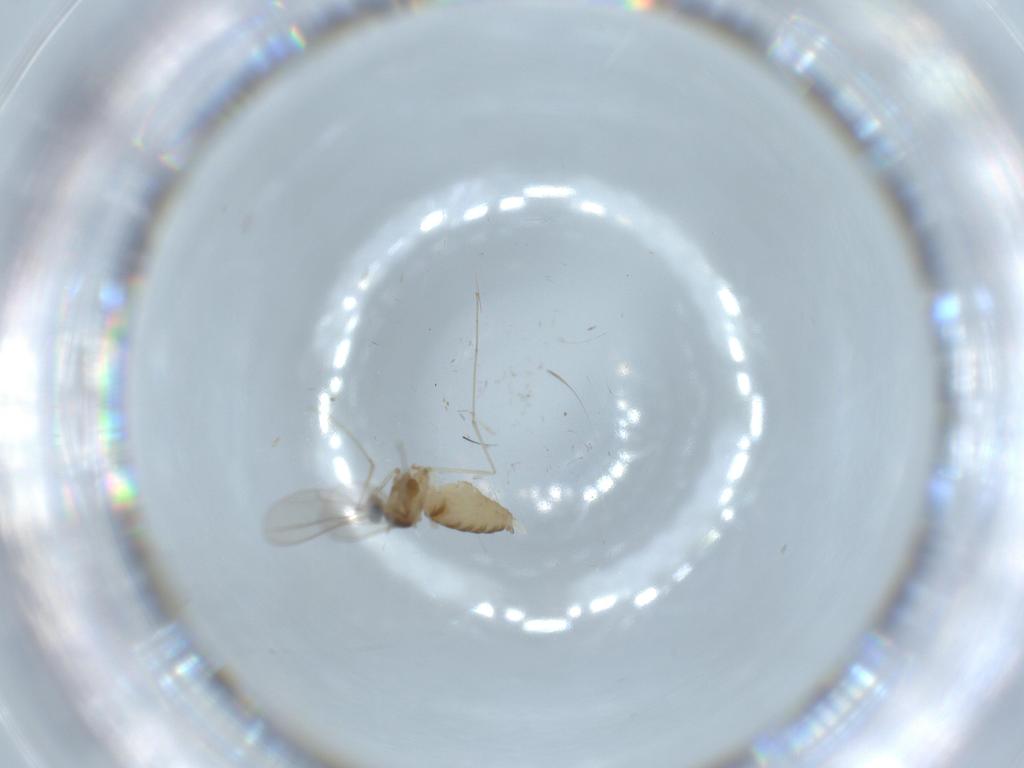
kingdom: Animalia
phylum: Arthropoda
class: Insecta
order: Diptera
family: Cecidomyiidae
